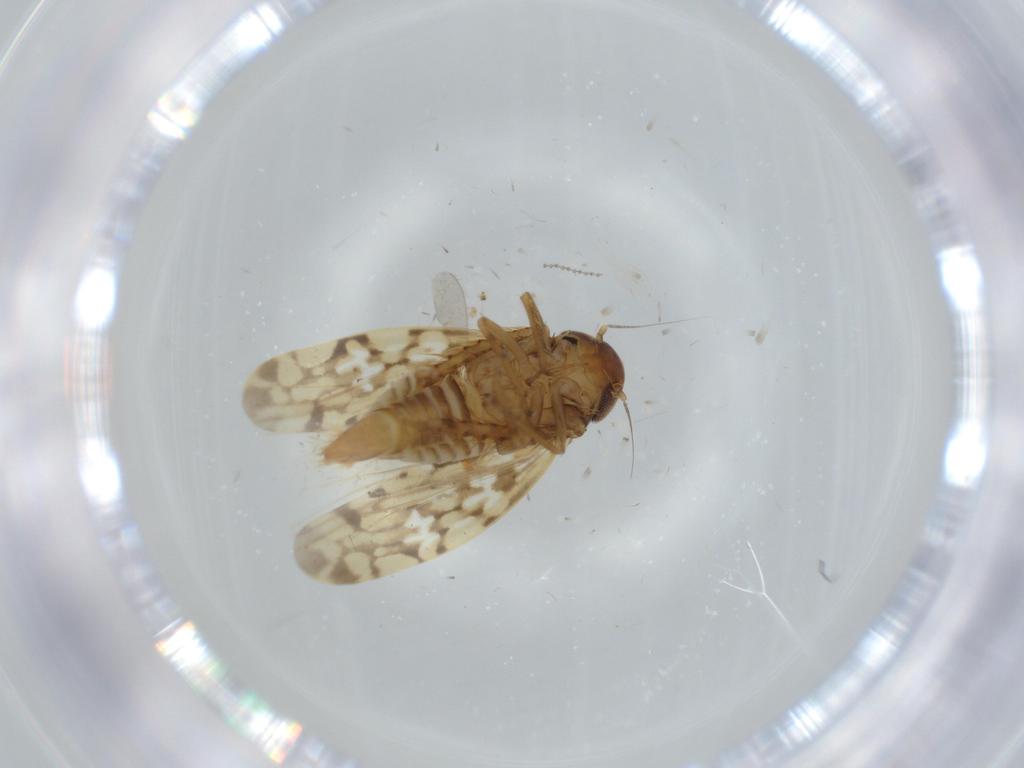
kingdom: Animalia
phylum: Arthropoda
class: Insecta
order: Hemiptera
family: Cicadellidae
